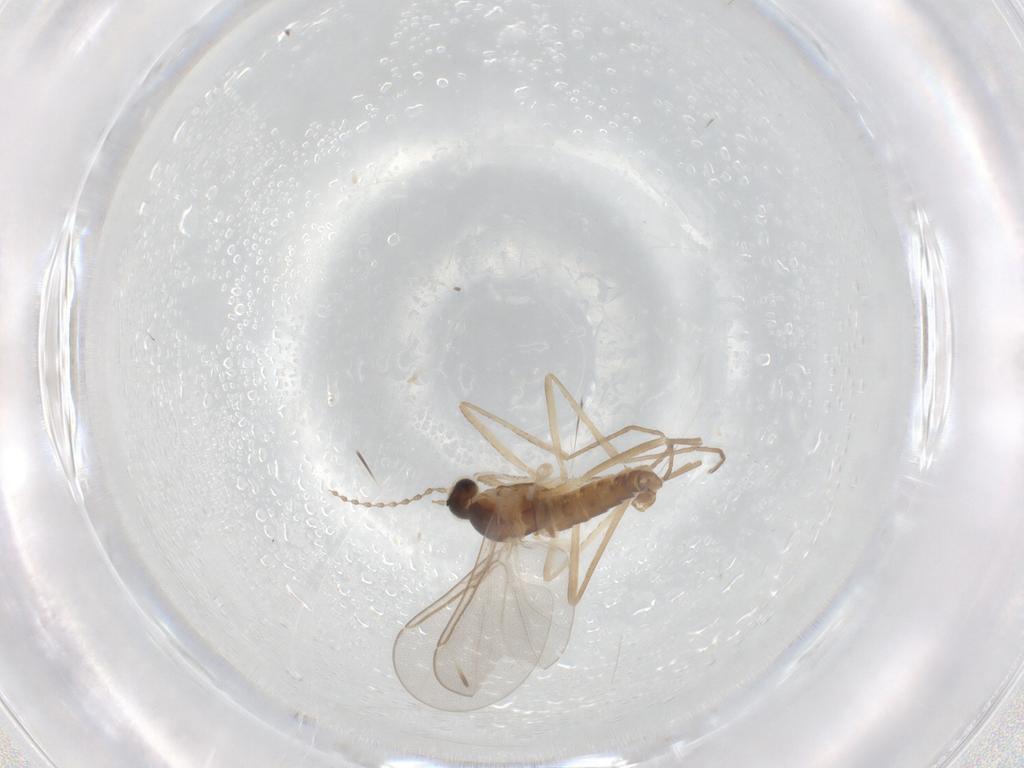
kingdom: Animalia
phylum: Arthropoda
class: Insecta
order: Diptera
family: Cecidomyiidae
